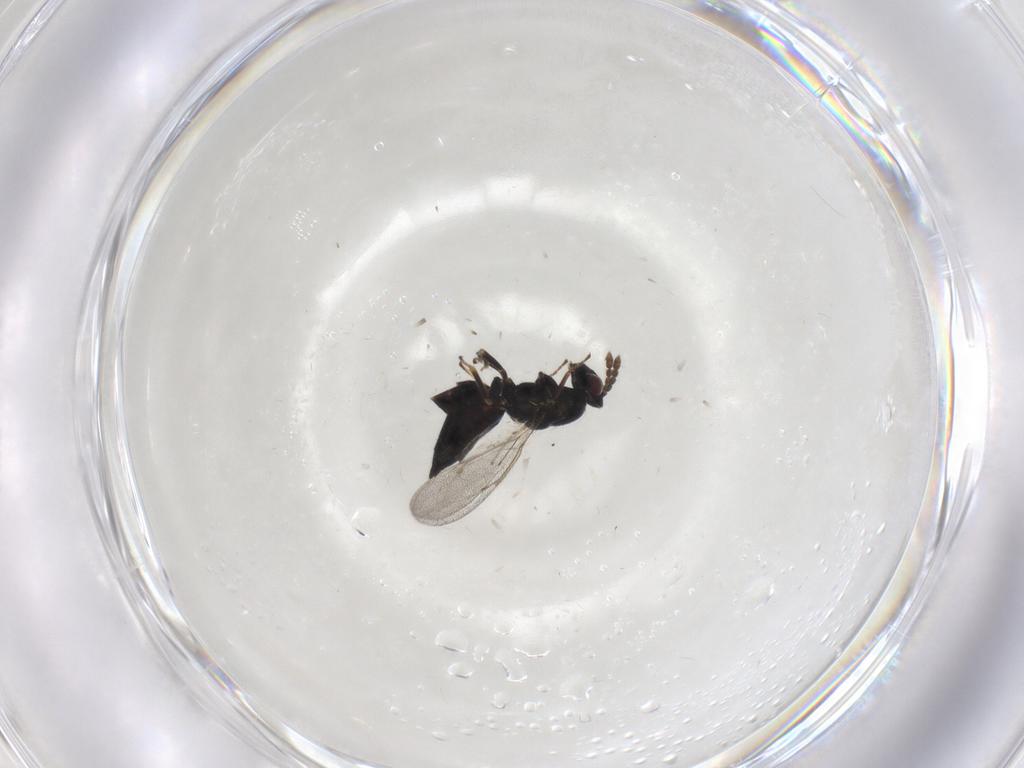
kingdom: Animalia
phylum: Arthropoda
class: Insecta
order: Hymenoptera
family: Eulophidae
